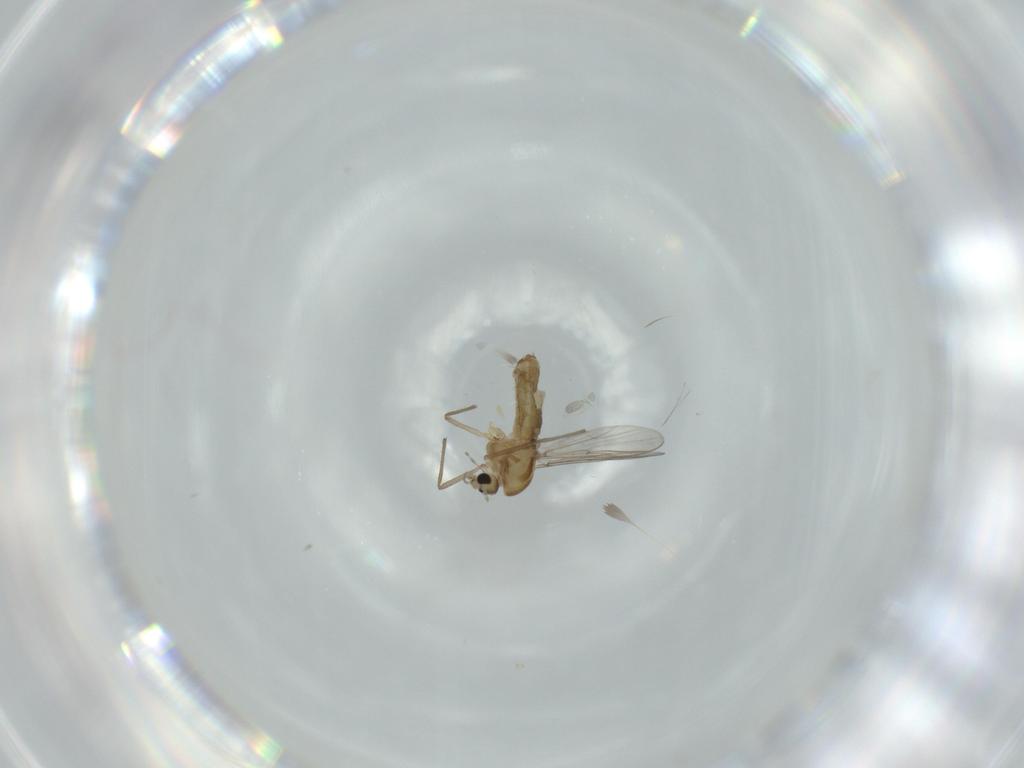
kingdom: Animalia
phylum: Arthropoda
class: Insecta
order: Diptera
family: Chironomidae
